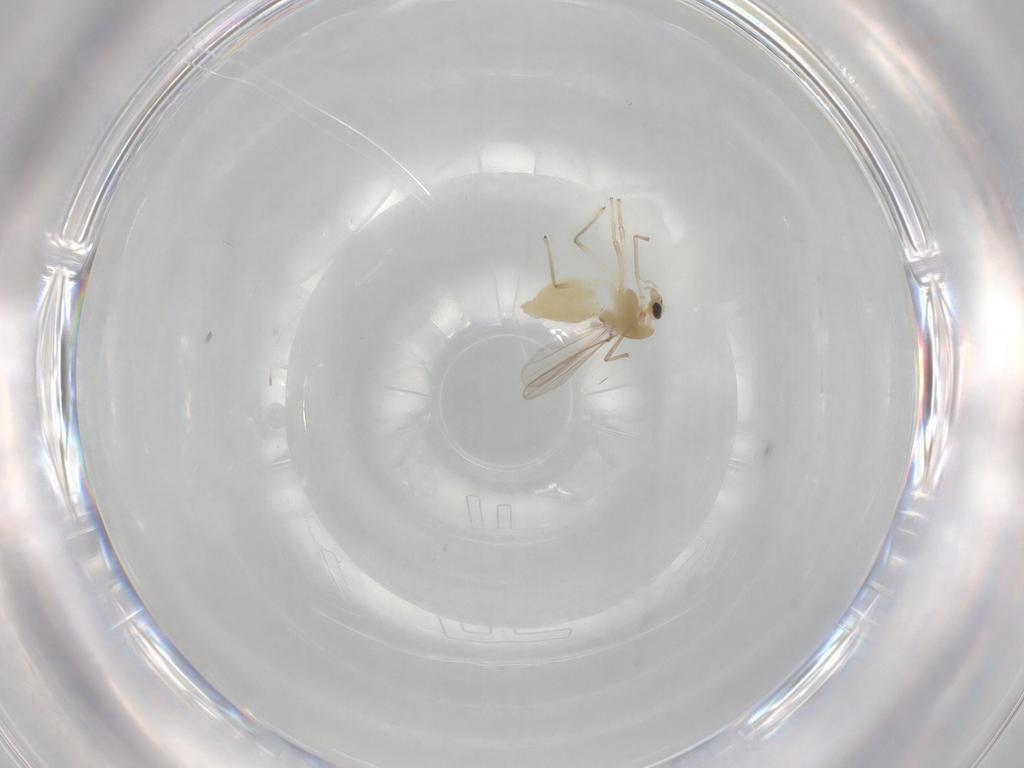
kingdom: Animalia
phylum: Arthropoda
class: Insecta
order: Diptera
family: Chironomidae
